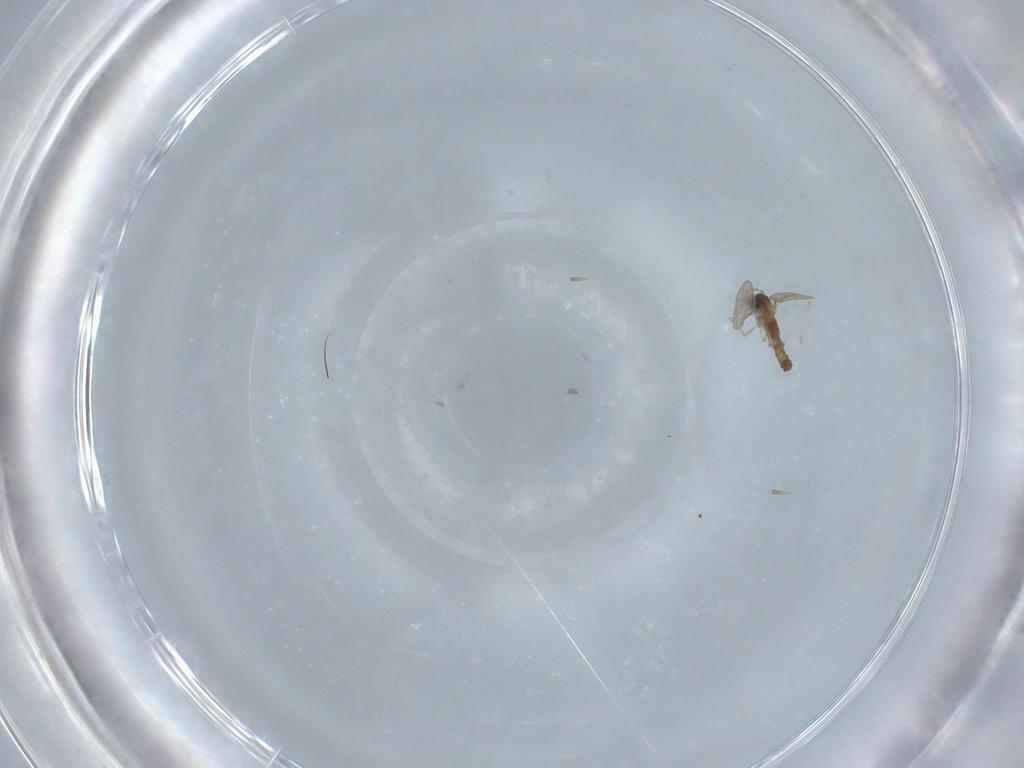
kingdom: Animalia
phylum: Arthropoda
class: Insecta
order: Diptera
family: Cecidomyiidae
